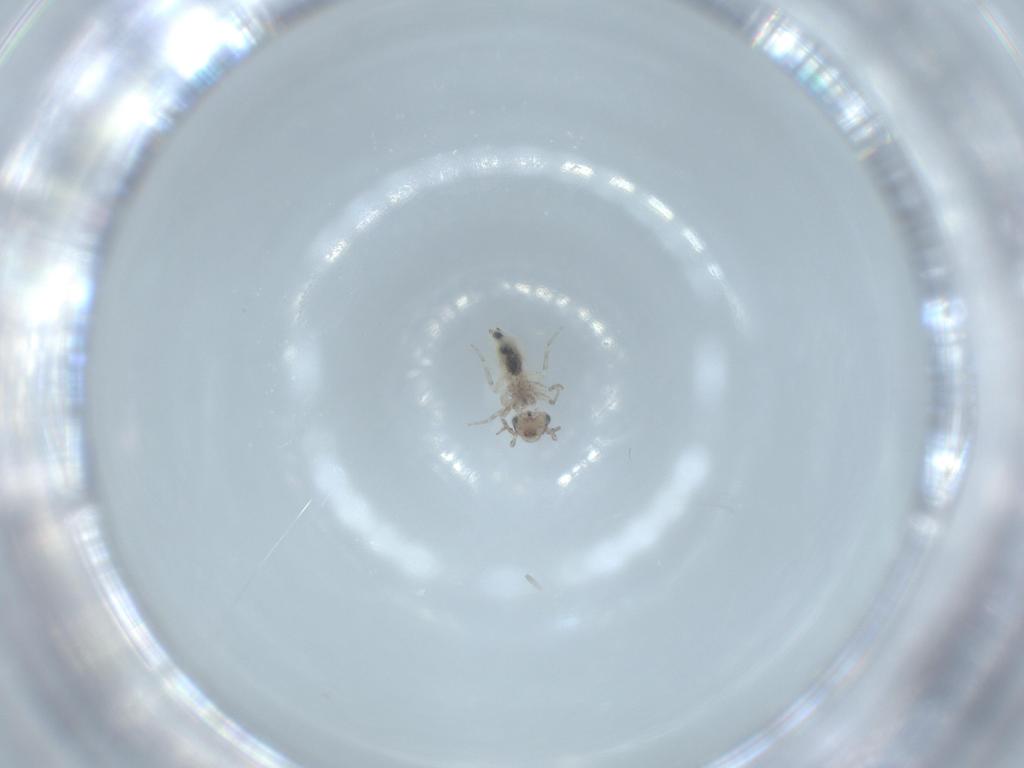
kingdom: Animalia
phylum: Arthropoda
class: Insecta
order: Psocodea
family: Lepidopsocidae
